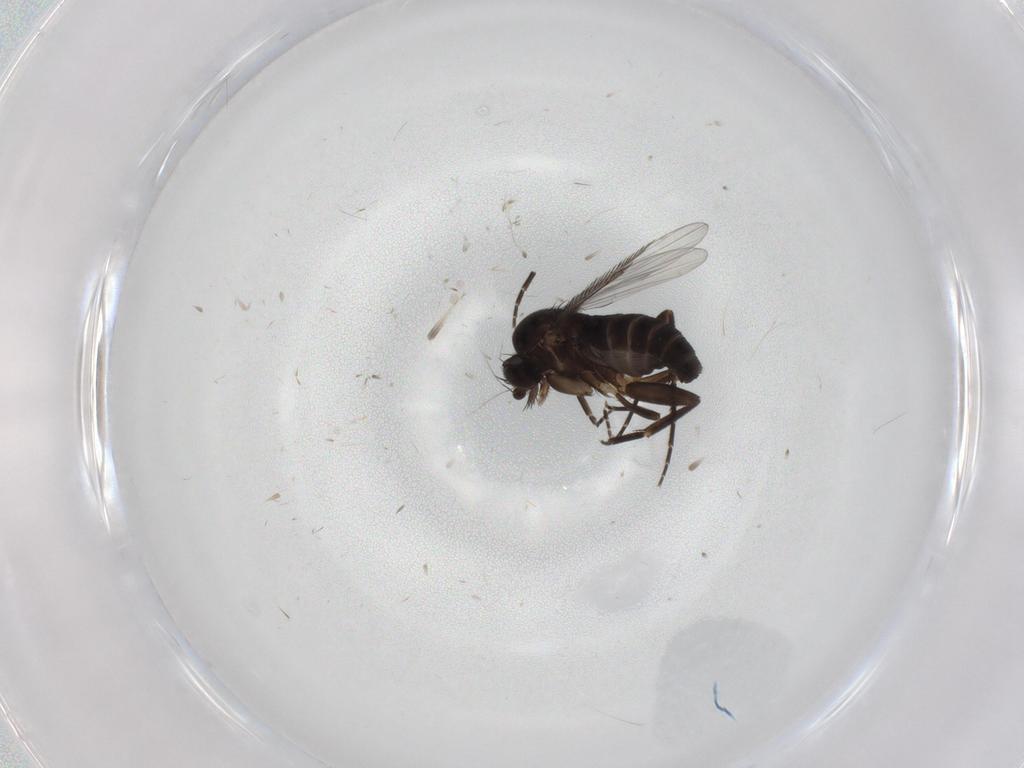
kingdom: Animalia
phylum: Arthropoda
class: Insecta
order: Diptera
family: Phoridae
